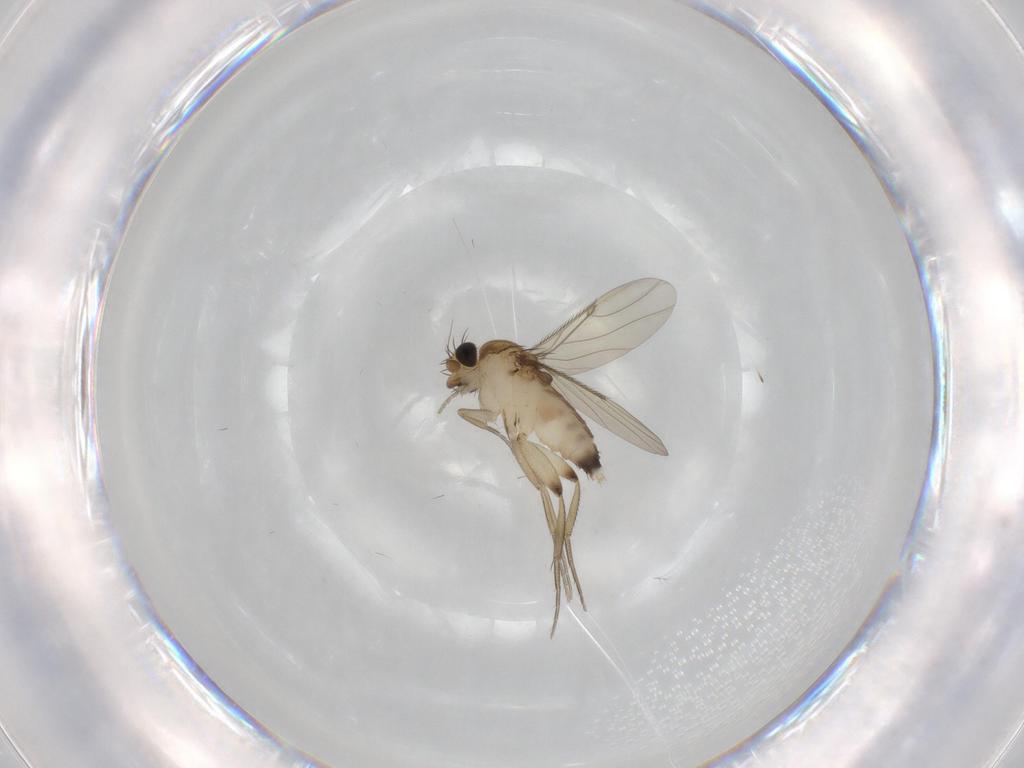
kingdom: Animalia
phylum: Arthropoda
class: Insecta
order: Diptera
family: Phoridae
